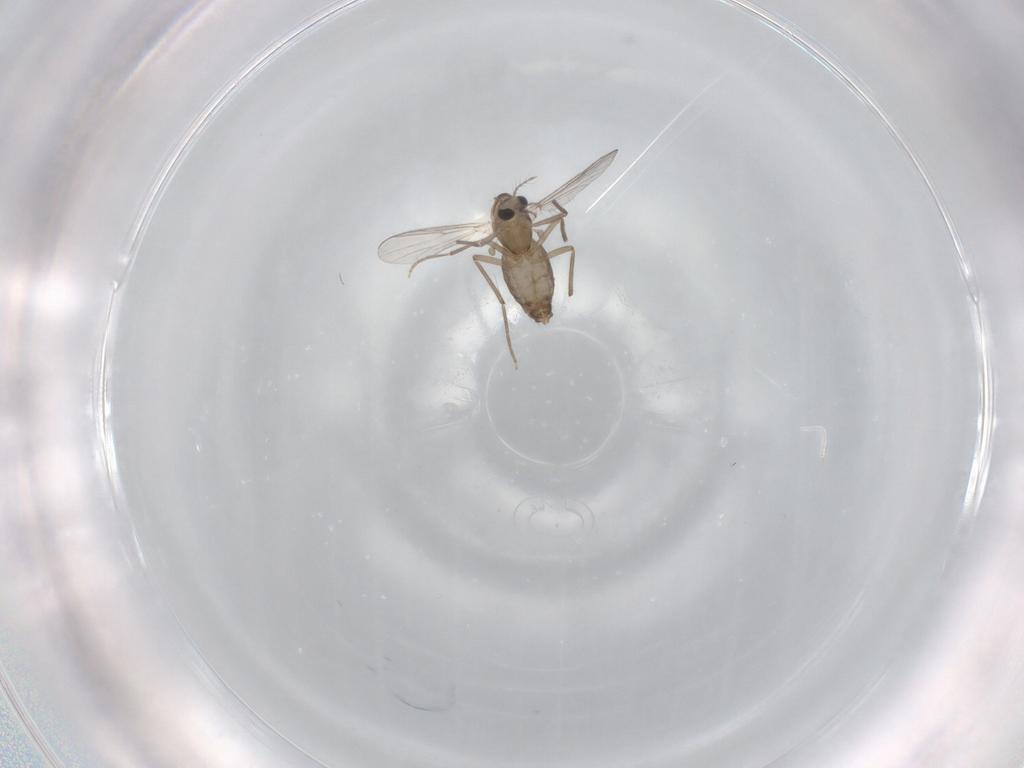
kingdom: Animalia
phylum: Arthropoda
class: Insecta
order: Diptera
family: Chironomidae
